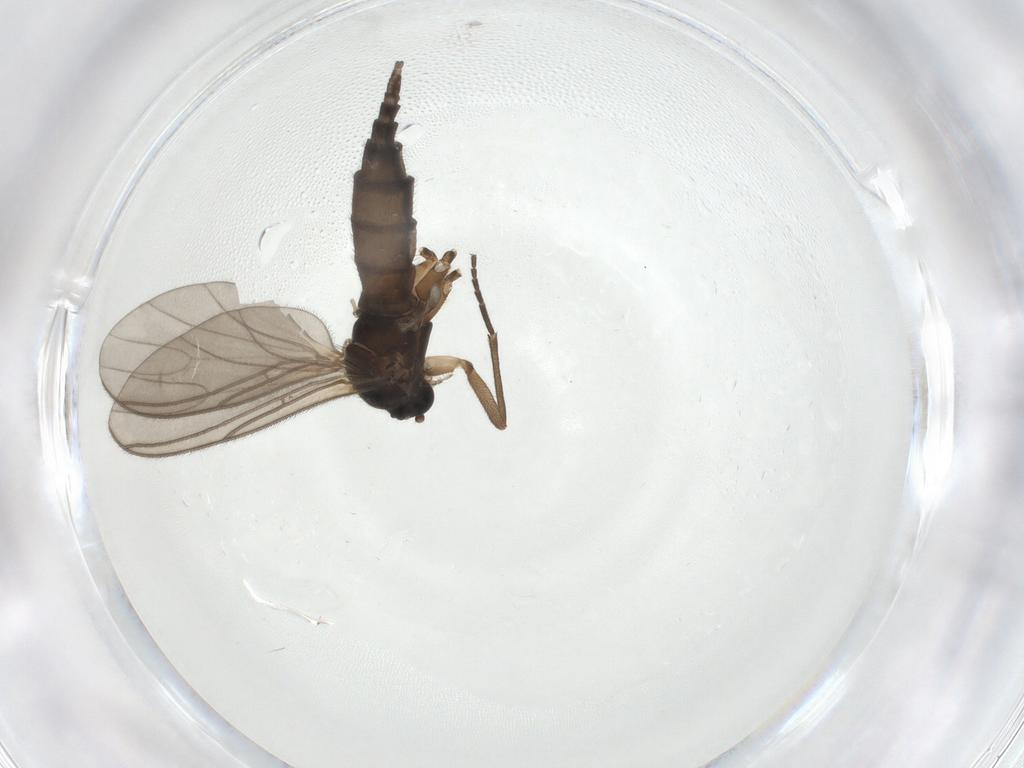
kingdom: Animalia
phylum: Arthropoda
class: Insecta
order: Diptera
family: Sciaridae
